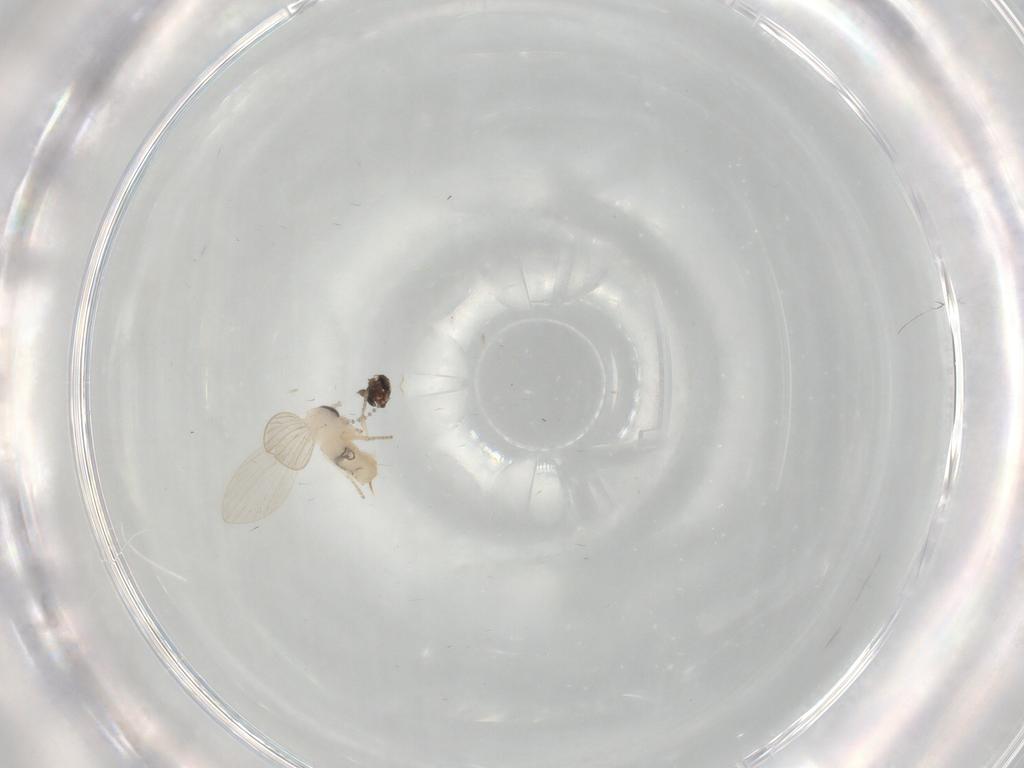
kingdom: Animalia
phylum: Arthropoda
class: Insecta
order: Diptera
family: Psychodidae
